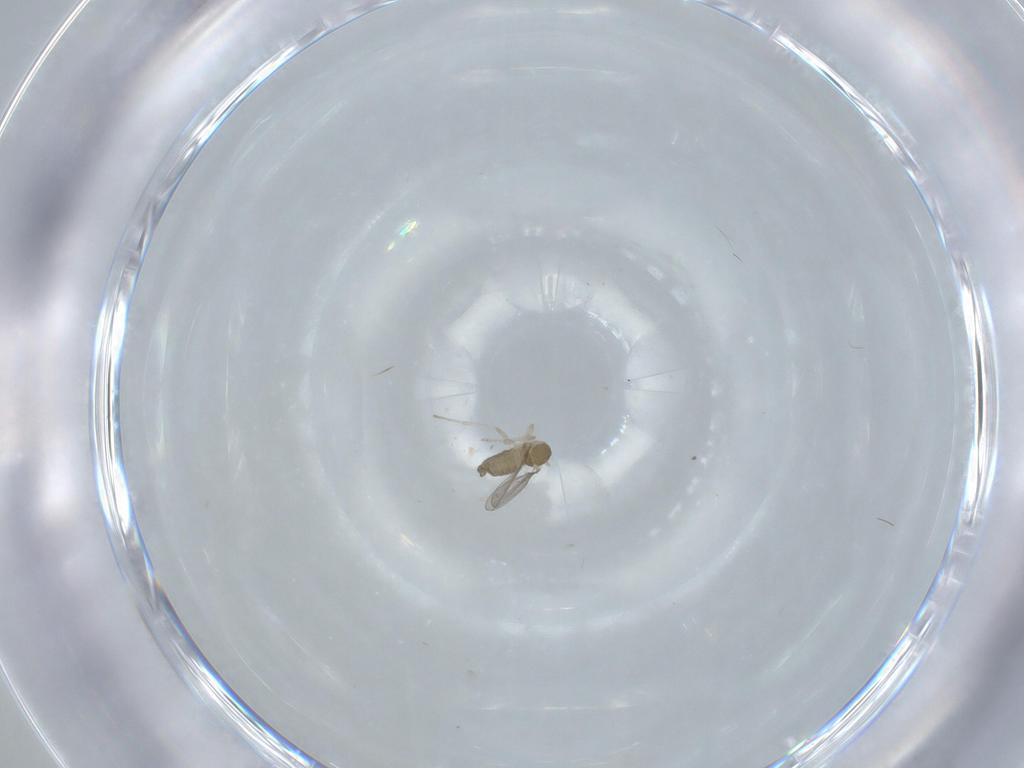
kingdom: Animalia
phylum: Arthropoda
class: Insecta
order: Diptera
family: Cecidomyiidae
